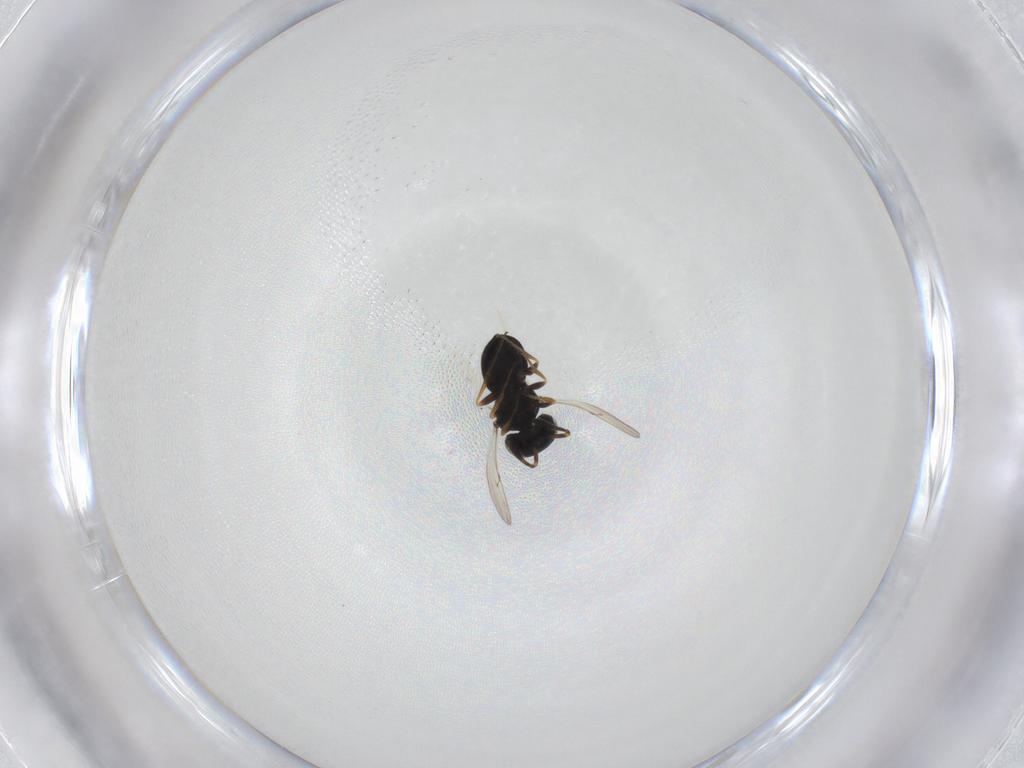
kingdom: Animalia
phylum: Arthropoda
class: Insecta
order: Hymenoptera
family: Scelionidae
